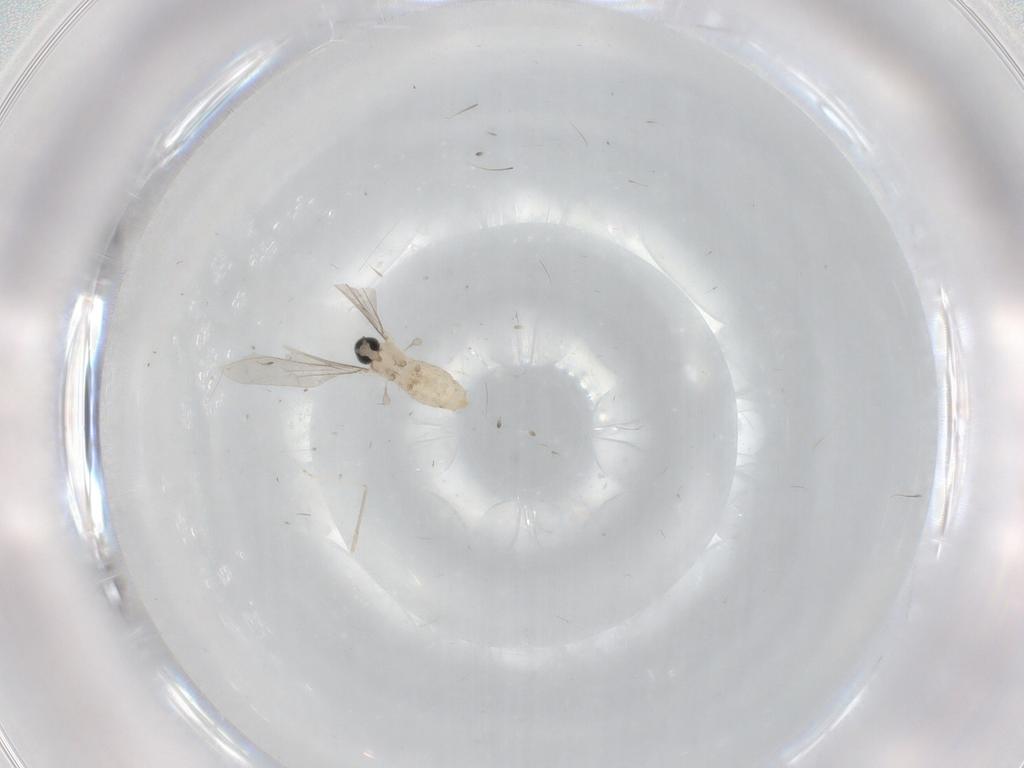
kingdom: Animalia
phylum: Arthropoda
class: Insecta
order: Diptera
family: Cecidomyiidae
